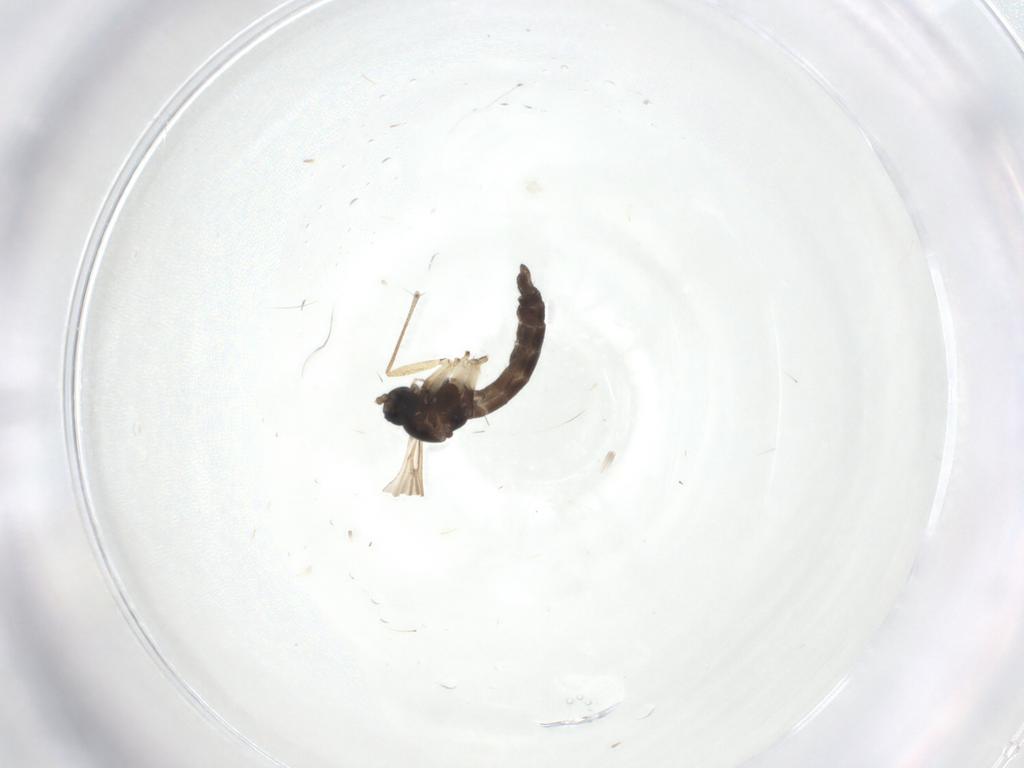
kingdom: Animalia
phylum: Arthropoda
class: Insecta
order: Diptera
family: Sciaridae
